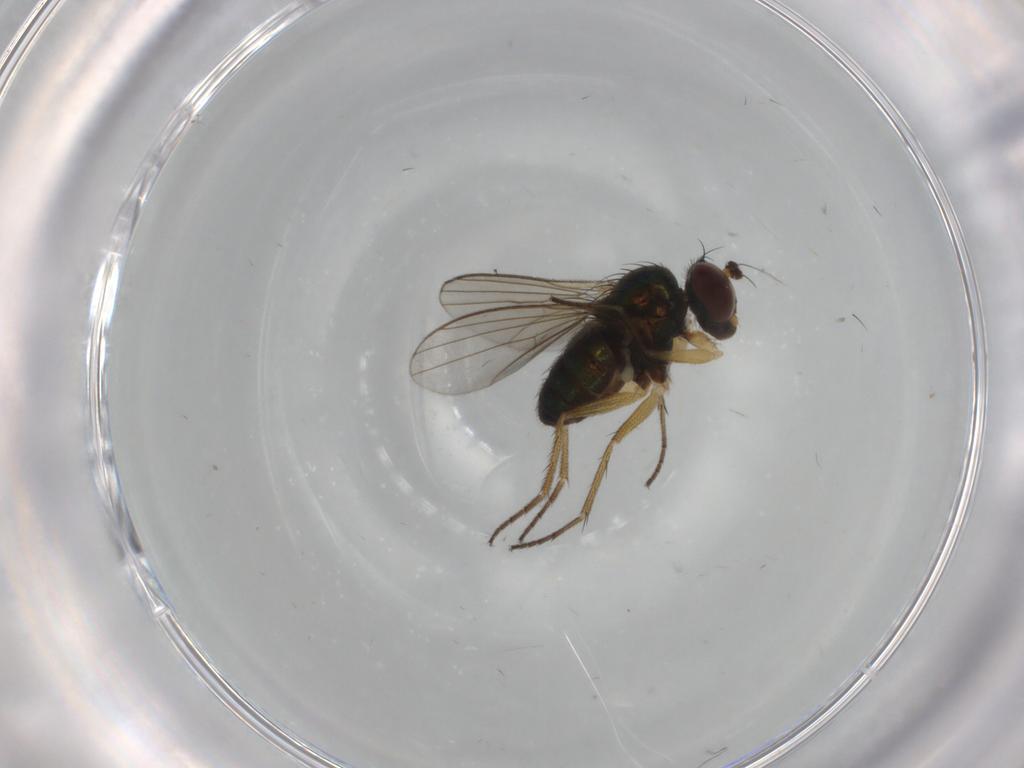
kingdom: Animalia
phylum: Arthropoda
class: Insecta
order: Diptera
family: Dolichopodidae
